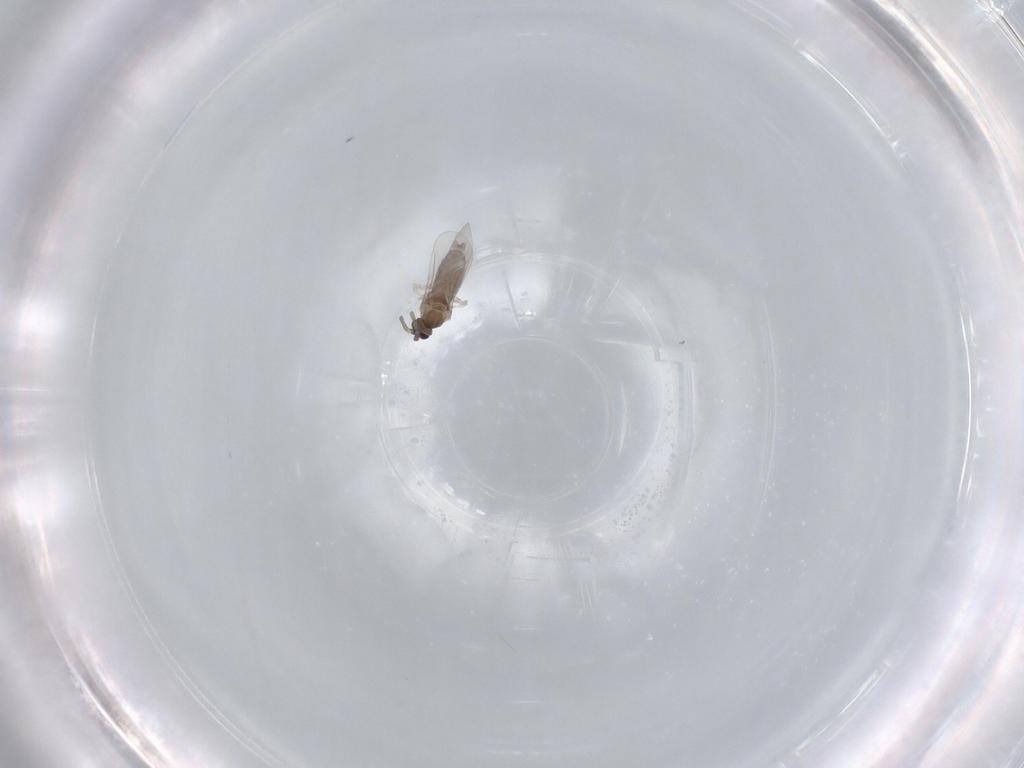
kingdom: Animalia
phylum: Arthropoda
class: Insecta
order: Diptera
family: Cecidomyiidae
